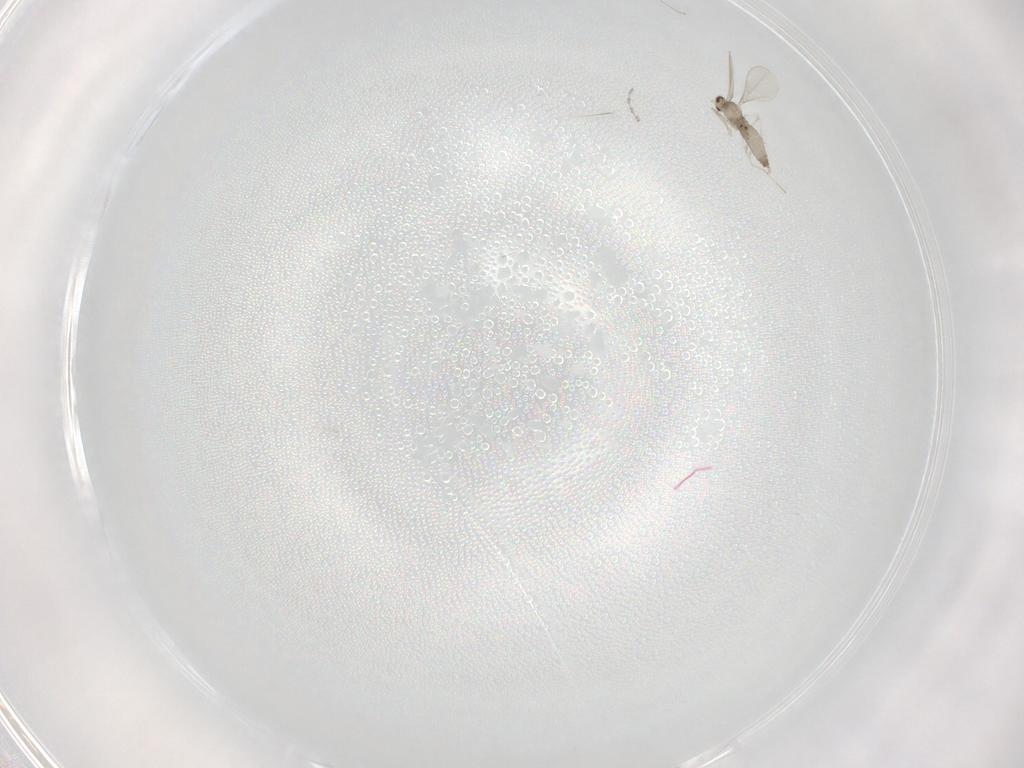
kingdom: Animalia
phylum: Arthropoda
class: Insecta
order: Diptera
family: Cecidomyiidae
